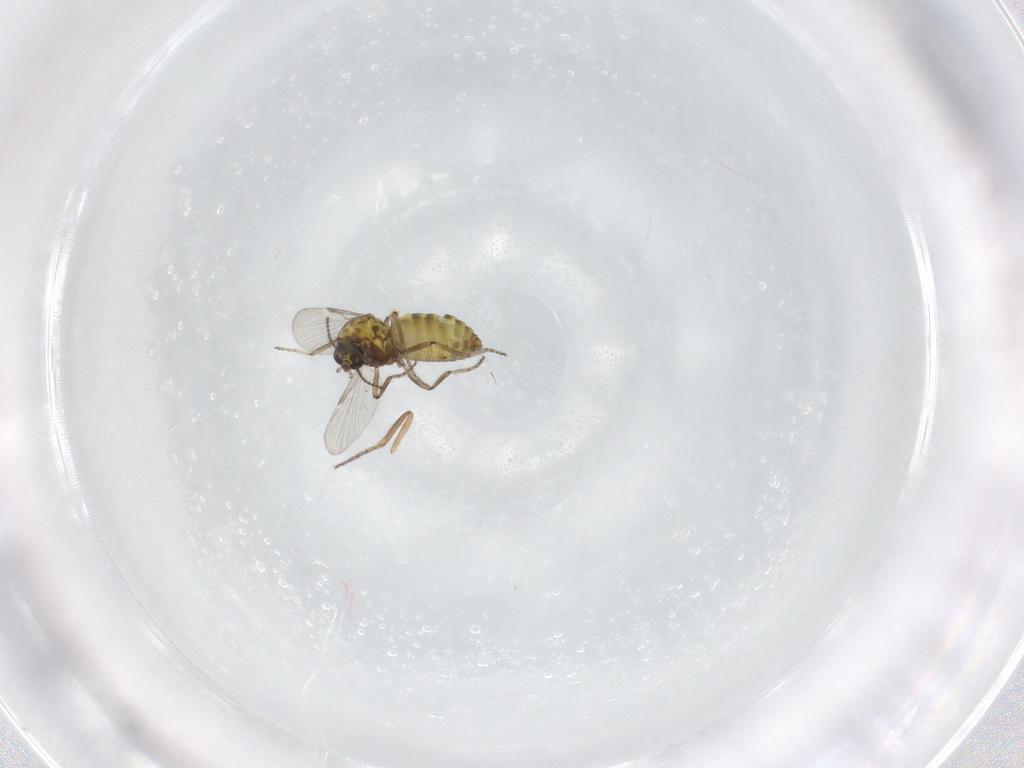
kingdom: Animalia
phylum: Arthropoda
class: Insecta
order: Diptera
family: Ceratopogonidae
